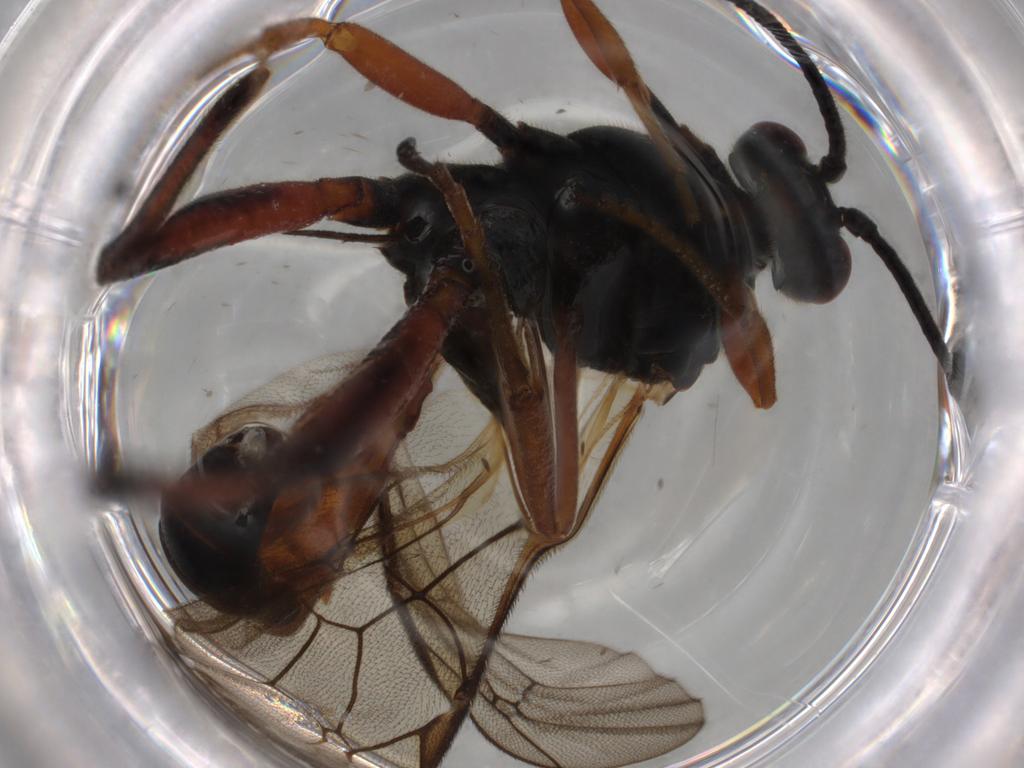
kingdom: Animalia
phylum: Arthropoda
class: Insecta
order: Hymenoptera
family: Ichneumonidae
